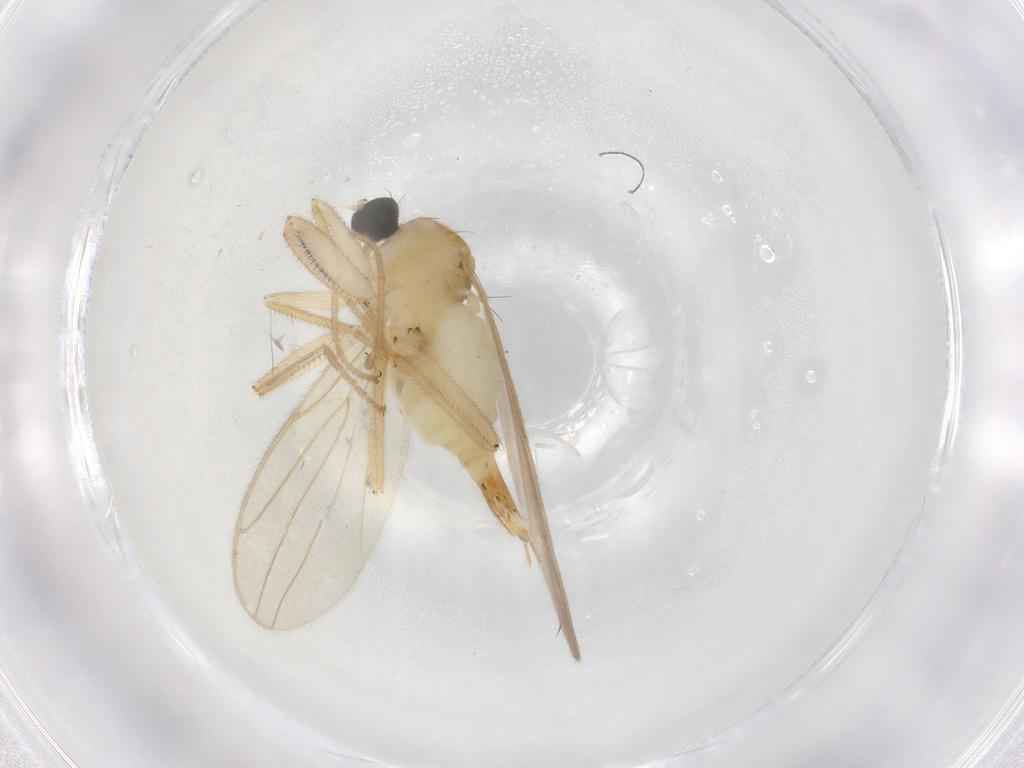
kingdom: Animalia
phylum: Arthropoda
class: Insecta
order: Diptera
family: Hybotidae
